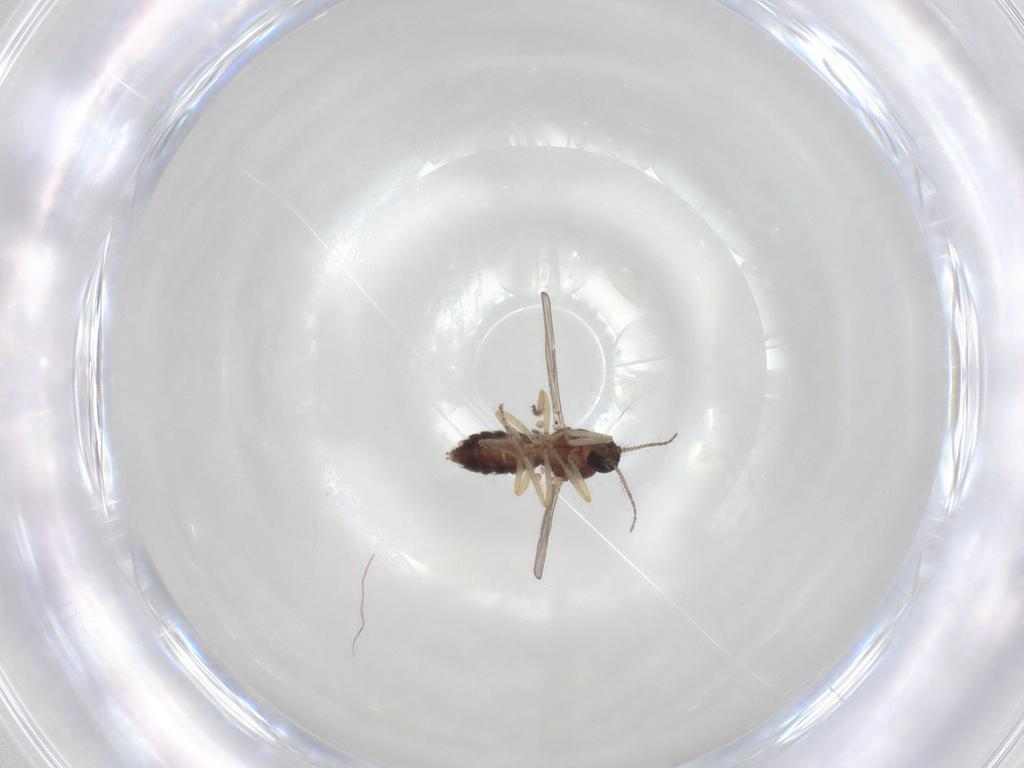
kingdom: Animalia
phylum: Arthropoda
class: Insecta
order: Diptera
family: Ceratopogonidae
